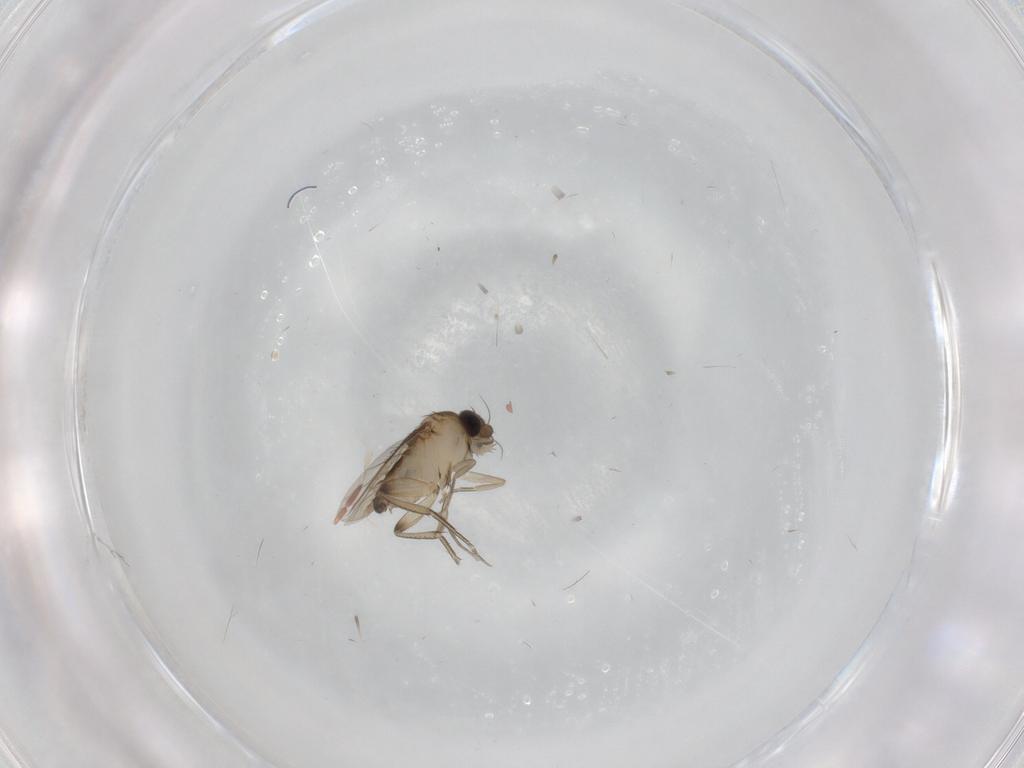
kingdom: Animalia
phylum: Arthropoda
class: Insecta
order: Diptera
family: Phoridae
